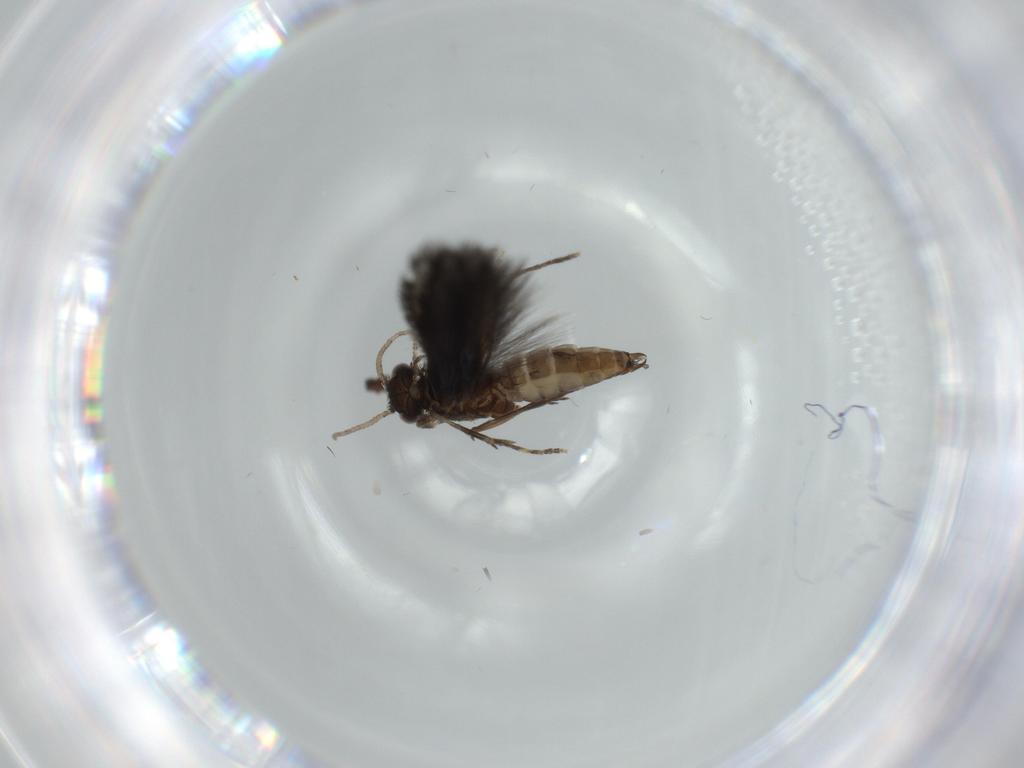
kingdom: Animalia
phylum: Arthropoda
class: Insecta
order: Trichoptera
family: Hydroptilidae
